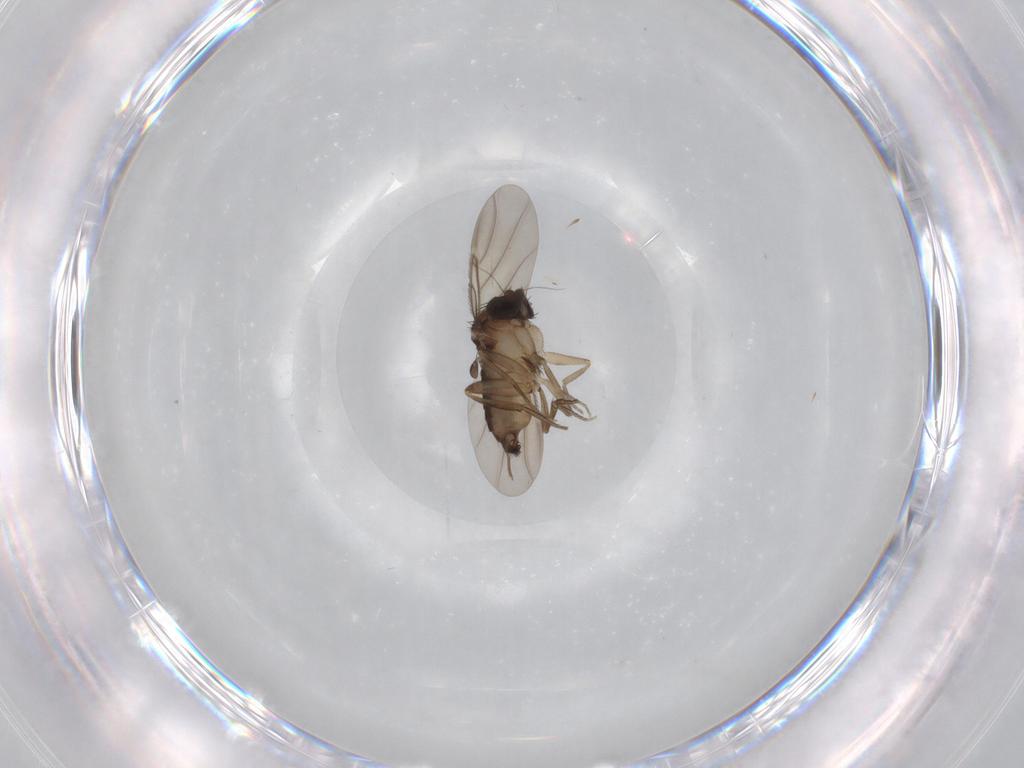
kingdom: Animalia
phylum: Arthropoda
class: Insecta
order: Diptera
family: Phoridae
